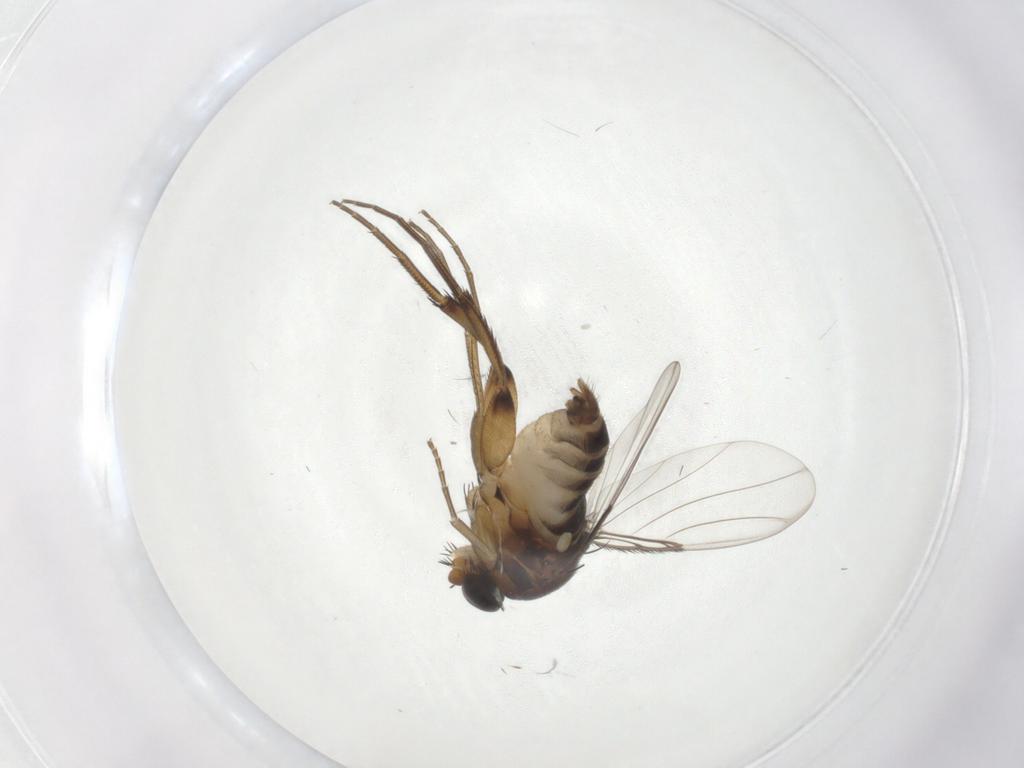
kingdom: Animalia
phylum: Arthropoda
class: Insecta
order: Diptera
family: Phoridae
